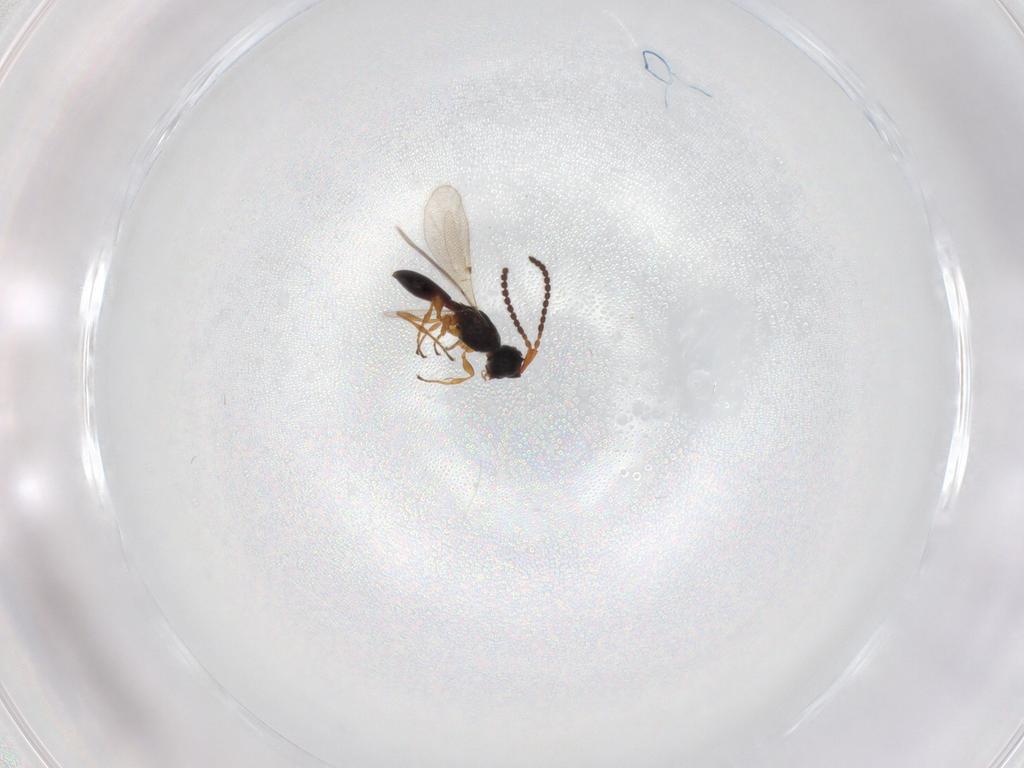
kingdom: Animalia
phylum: Arthropoda
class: Insecta
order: Hymenoptera
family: Diapriidae
